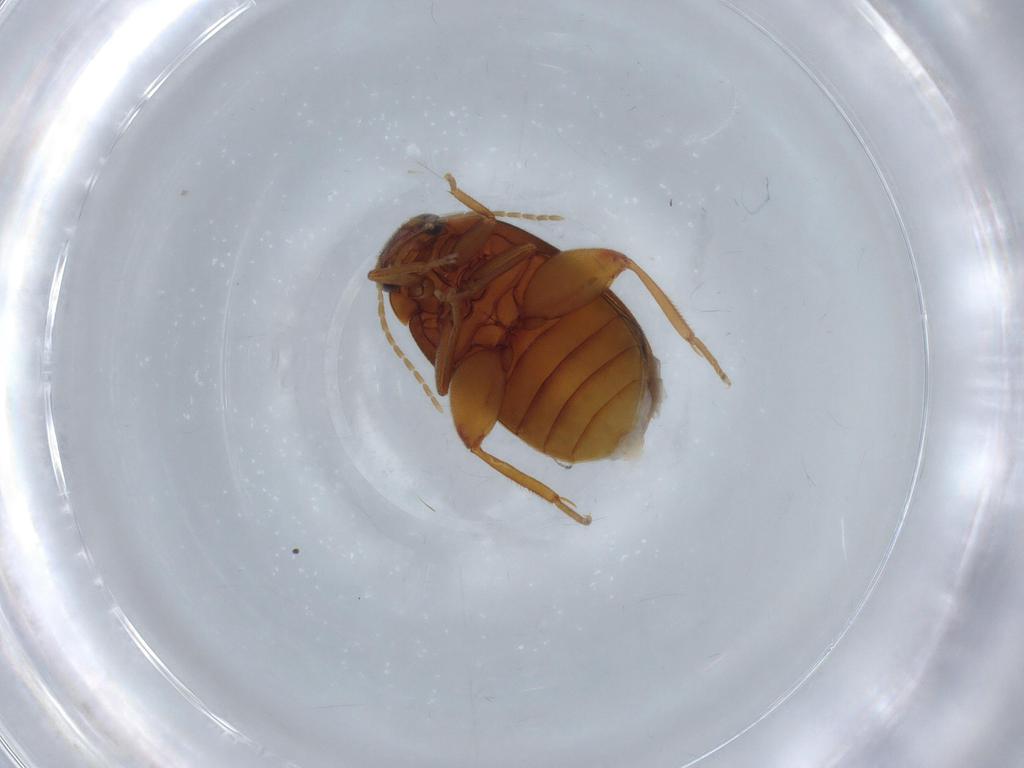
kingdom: Animalia
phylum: Arthropoda
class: Insecta
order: Coleoptera
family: Scirtidae
